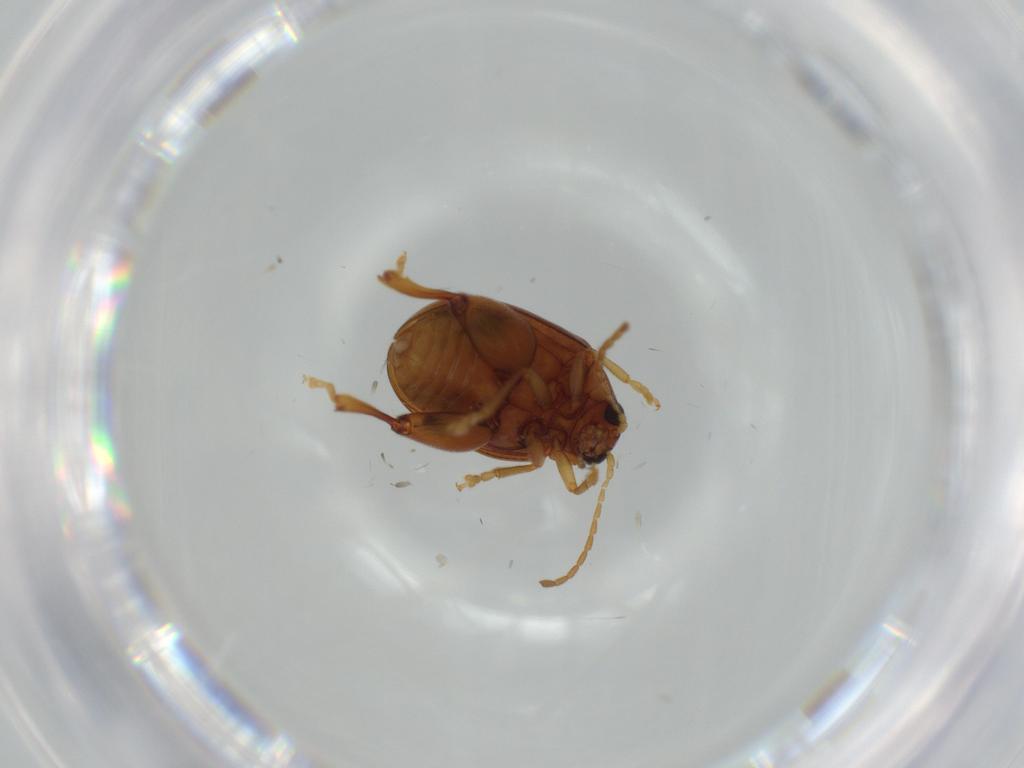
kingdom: Animalia
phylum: Arthropoda
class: Insecta
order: Coleoptera
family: Chrysomelidae
